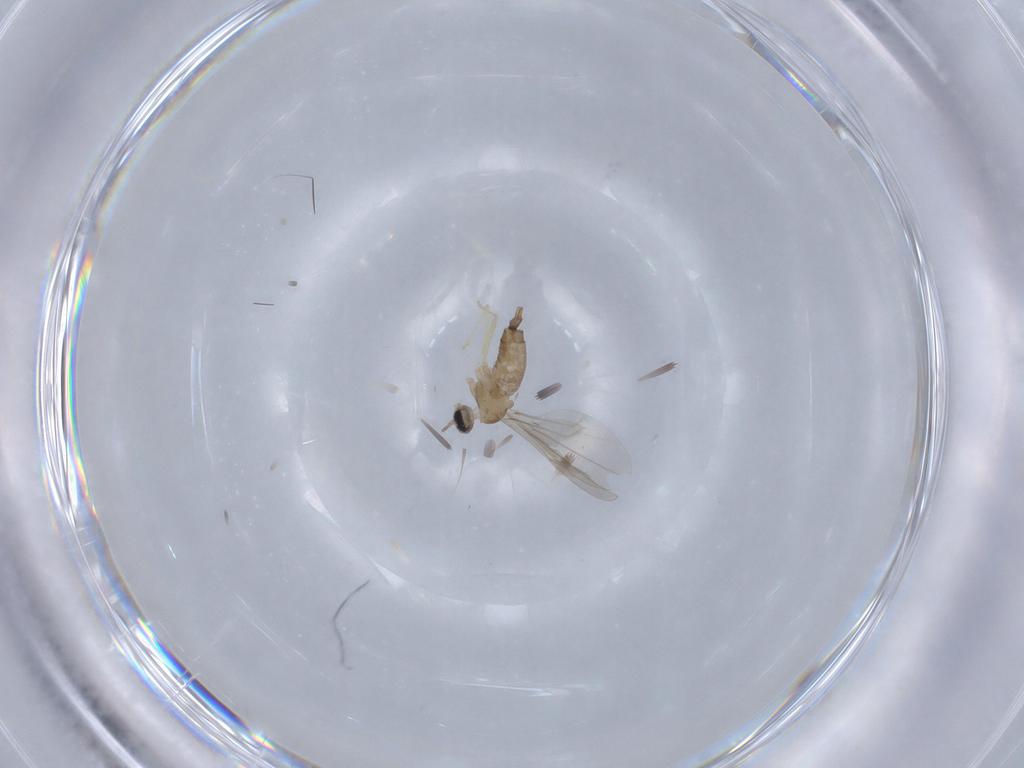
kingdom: Animalia
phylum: Arthropoda
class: Insecta
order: Diptera
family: Cecidomyiidae
